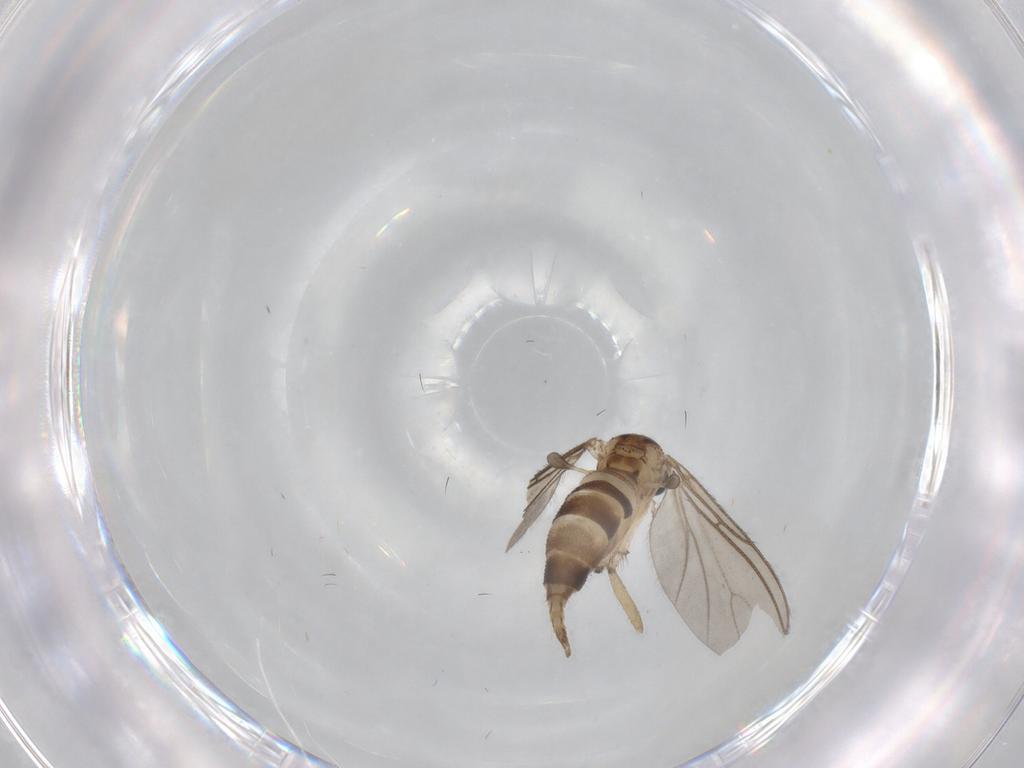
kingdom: Animalia
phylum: Arthropoda
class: Insecta
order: Diptera
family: Sciaridae
